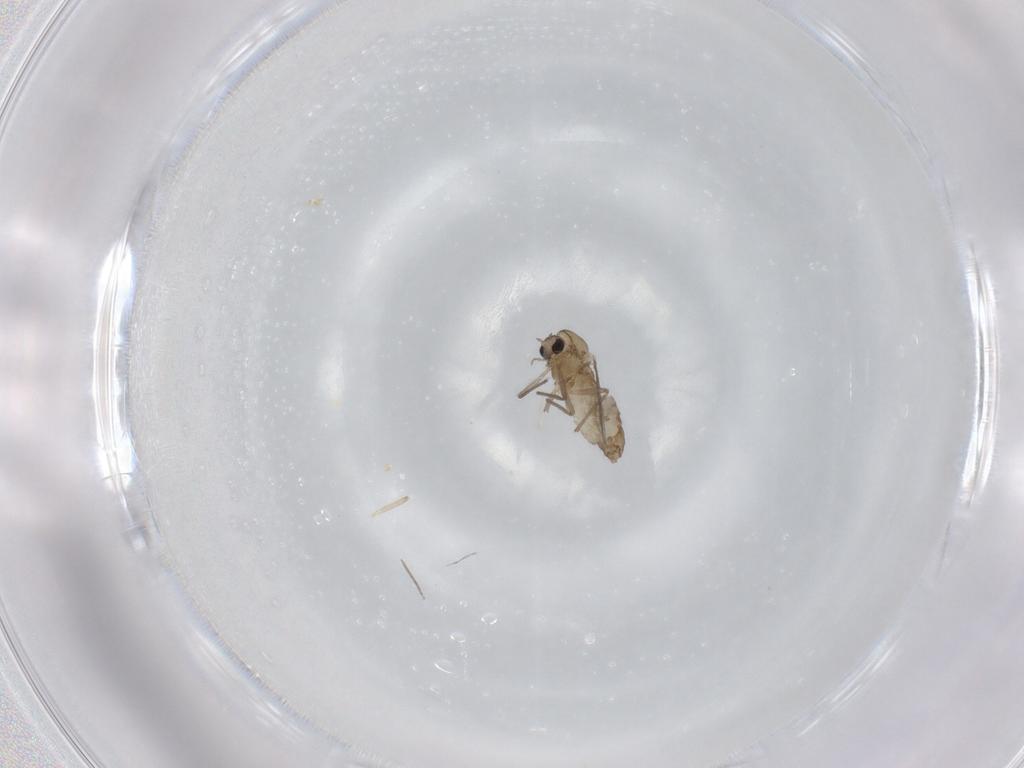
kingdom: Animalia
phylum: Arthropoda
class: Insecta
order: Diptera
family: Chironomidae
